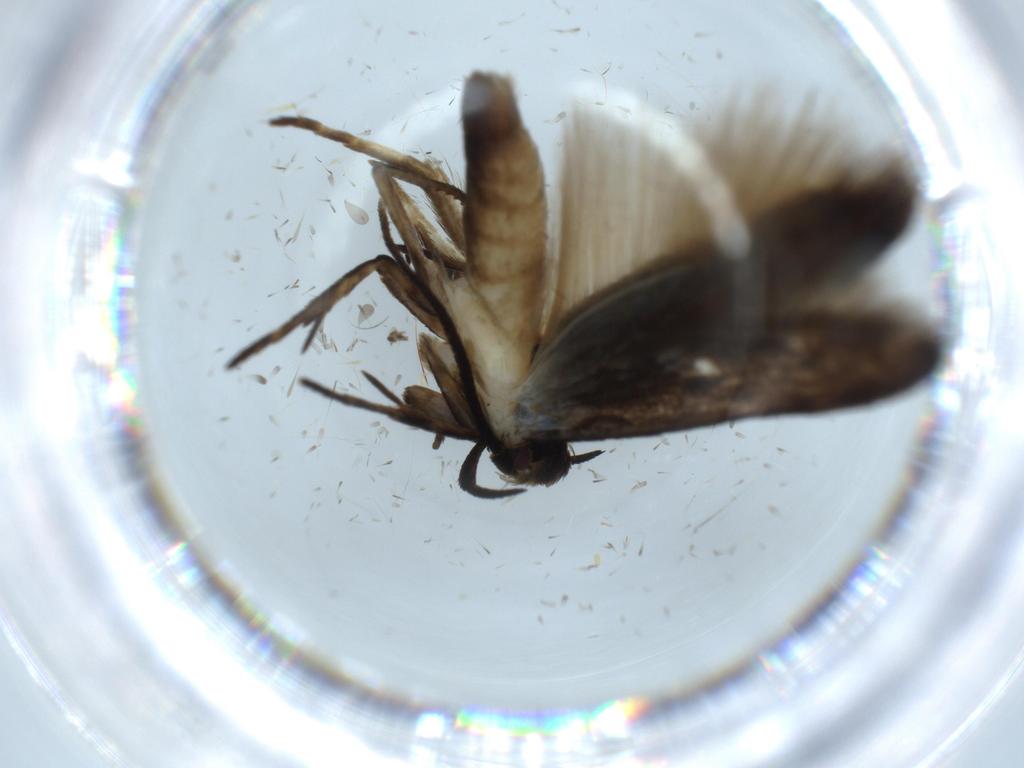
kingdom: Animalia
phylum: Arthropoda
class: Insecta
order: Lepidoptera
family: Cosmopterigidae
